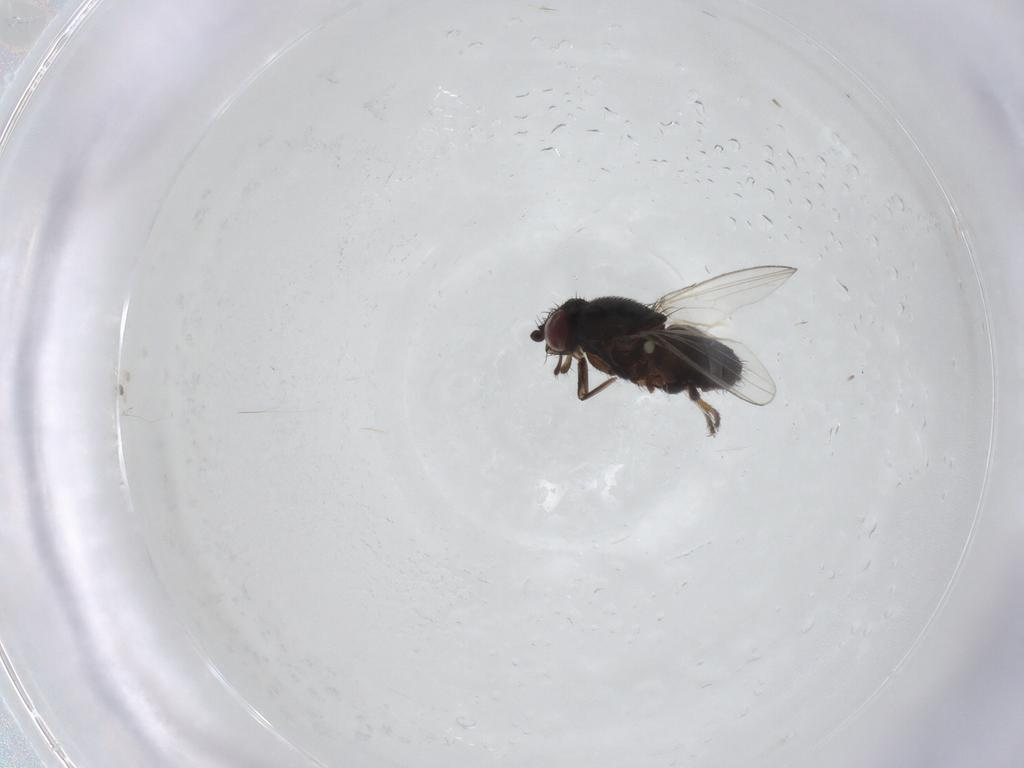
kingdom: Animalia
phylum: Arthropoda
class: Insecta
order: Diptera
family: Milichiidae
